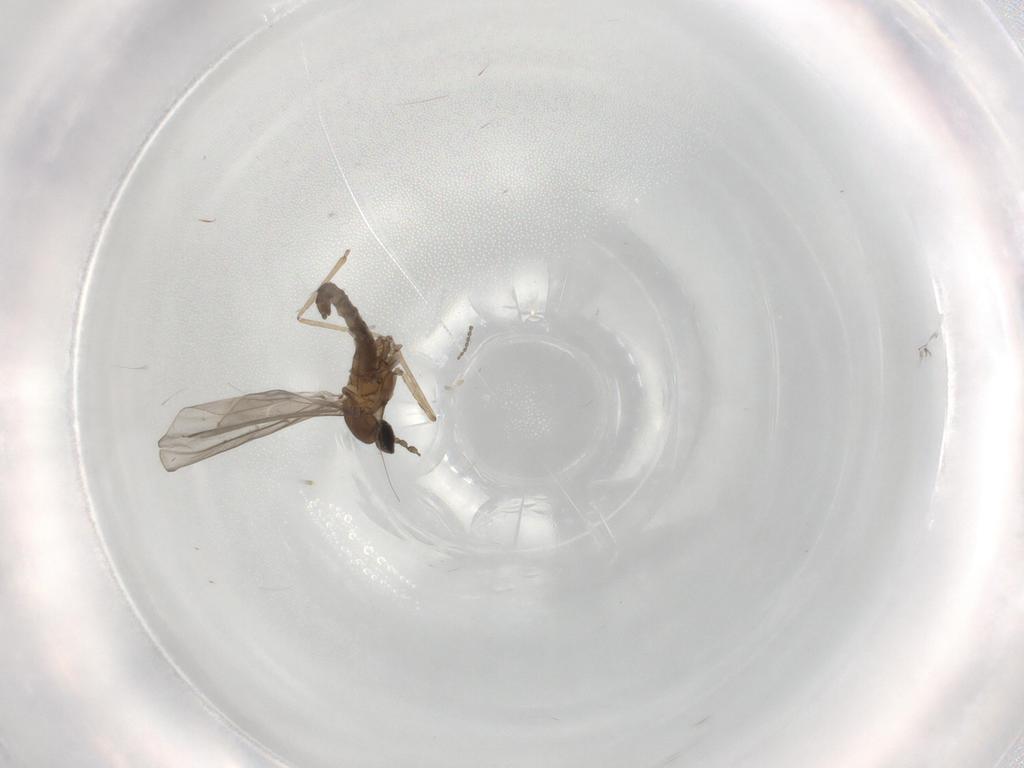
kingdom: Animalia
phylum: Arthropoda
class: Insecta
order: Diptera
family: Cecidomyiidae
